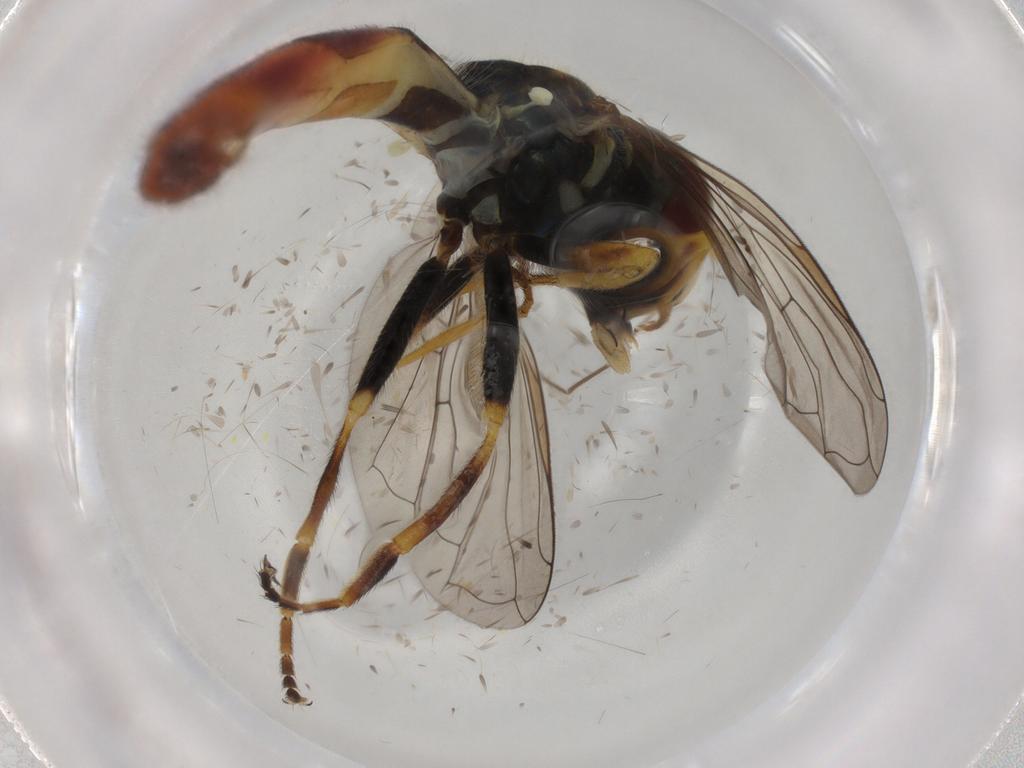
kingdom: Animalia
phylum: Arthropoda
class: Insecta
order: Diptera
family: Syrphidae
